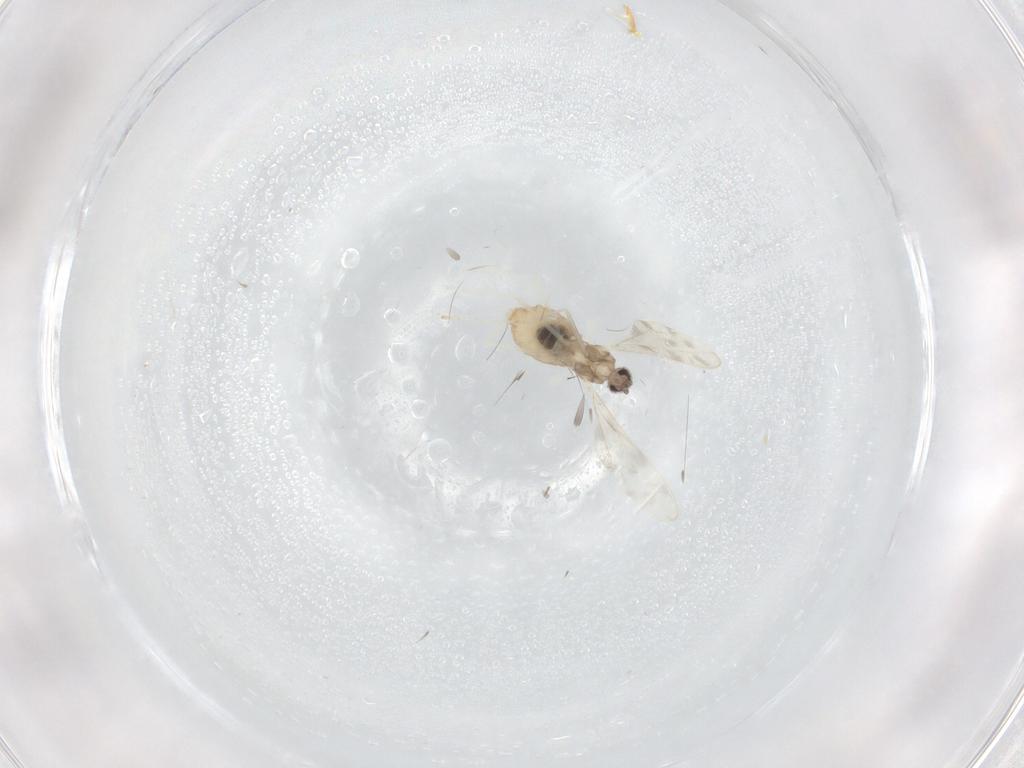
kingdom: Animalia
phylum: Arthropoda
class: Insecta
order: Diptera
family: Cecidomyiidae
